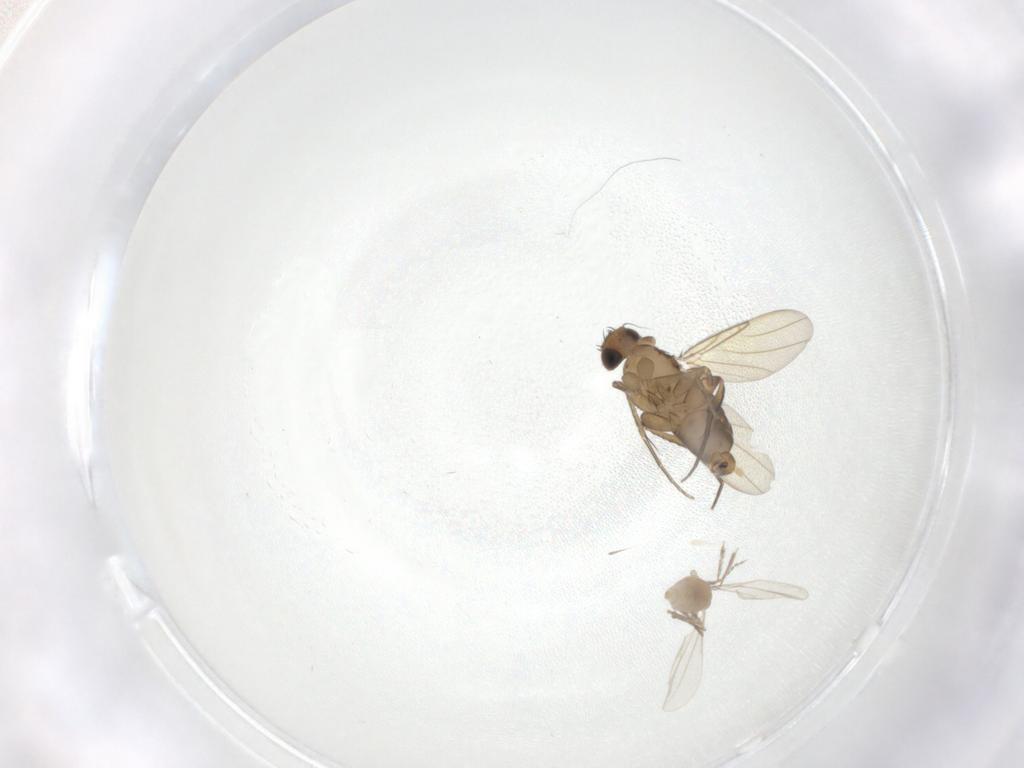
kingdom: Animalia
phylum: Arthropoda
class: Insecta
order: Diptera
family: Phoridae
